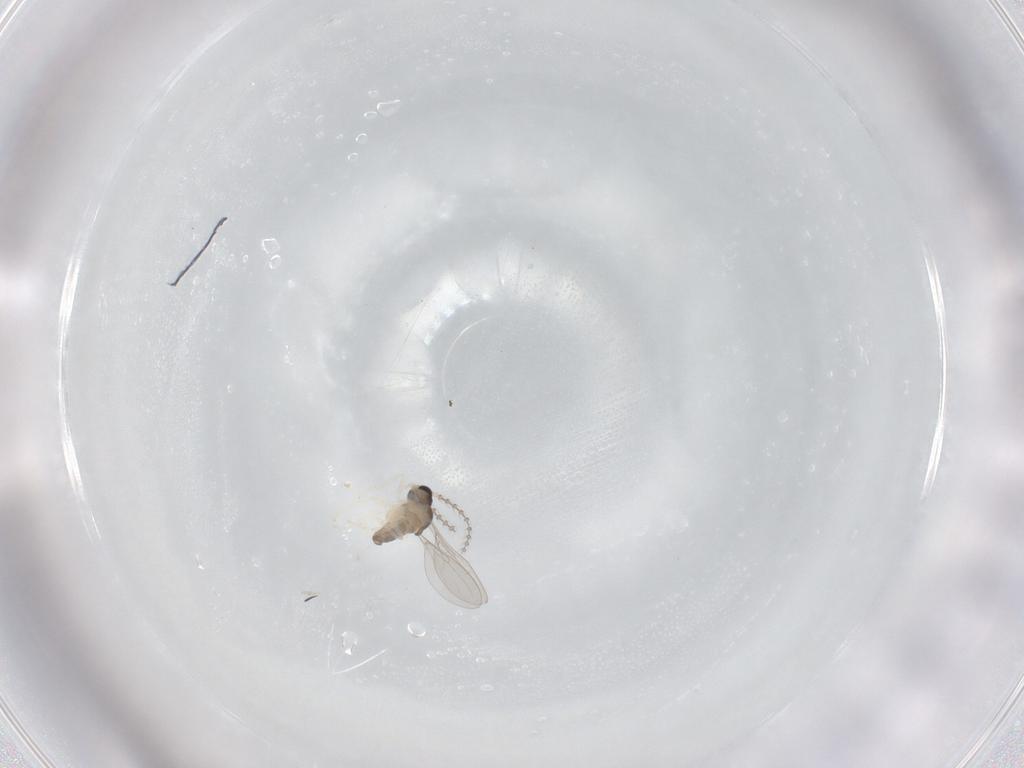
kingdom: Animalia
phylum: Arthropoda
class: Insecta
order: Diptera
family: Cecidomyiidae
